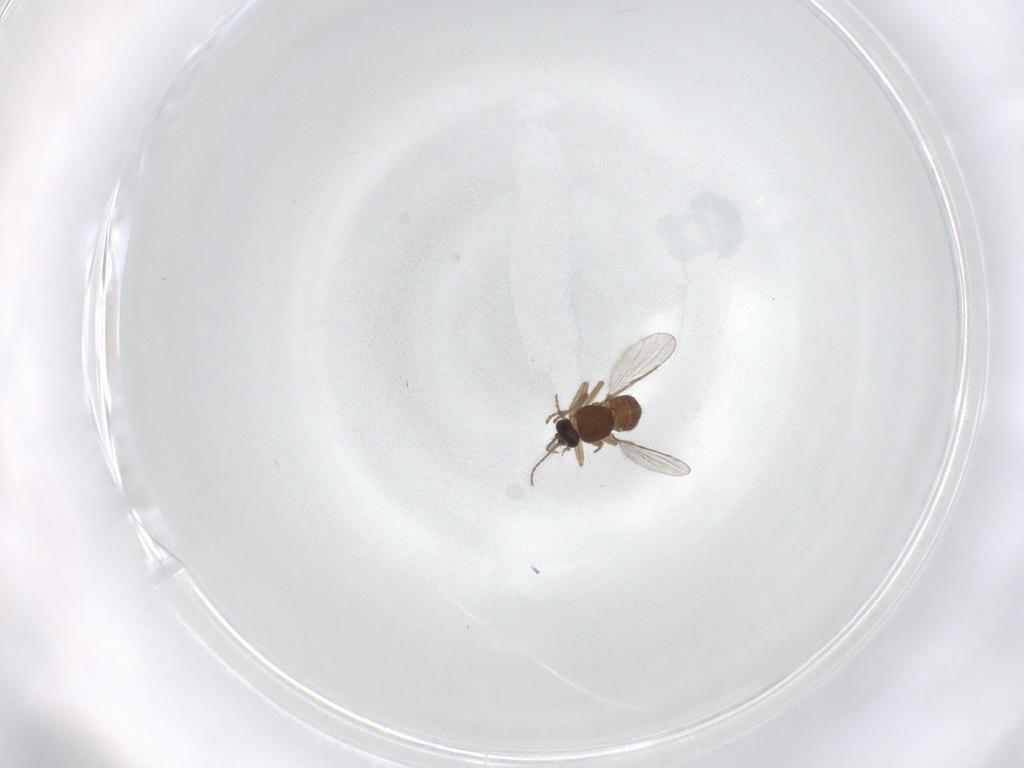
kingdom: Animalia
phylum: Arthropoda
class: Insecta
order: Diptera
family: Dolichopodidae
